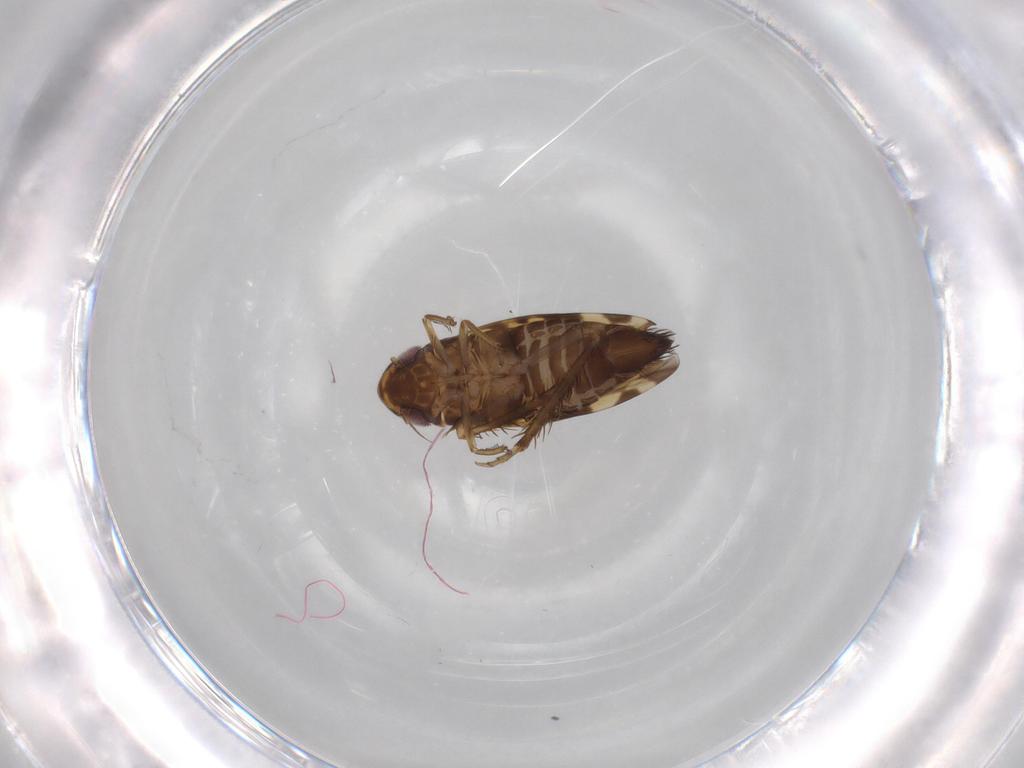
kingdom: Animalia
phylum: Arthropoda
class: Insecta
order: Hemiptera
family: Cicadellidae
